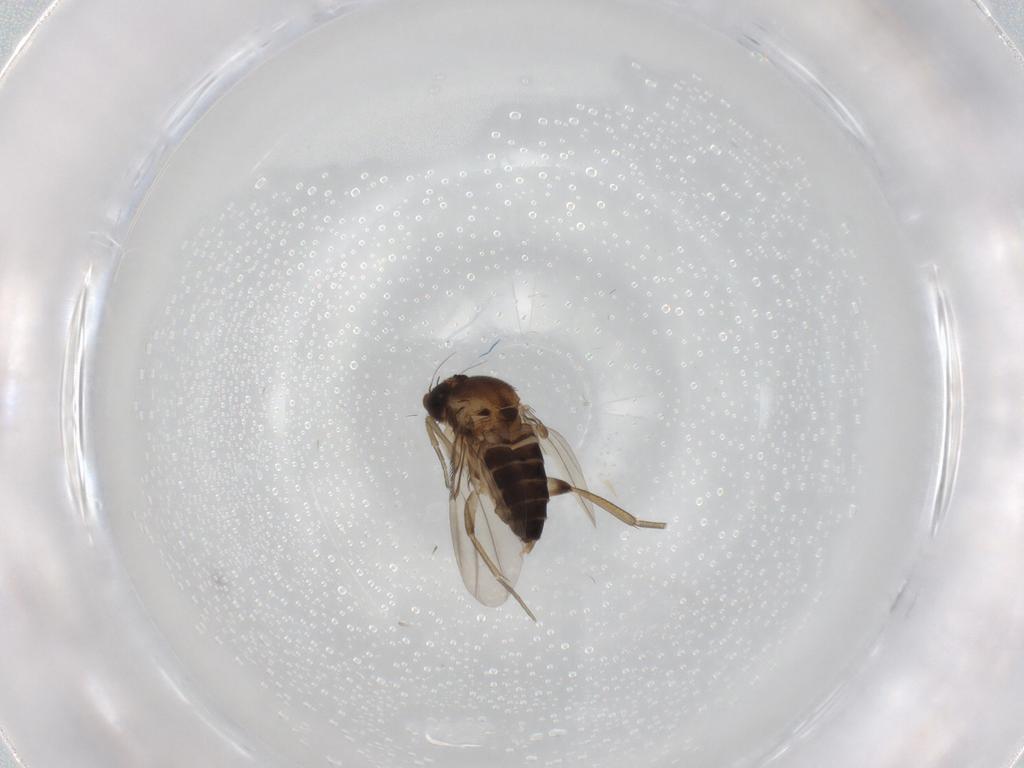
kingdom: Animalia
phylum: Arthropoda
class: Insecta
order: Diptera
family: Phoridae
